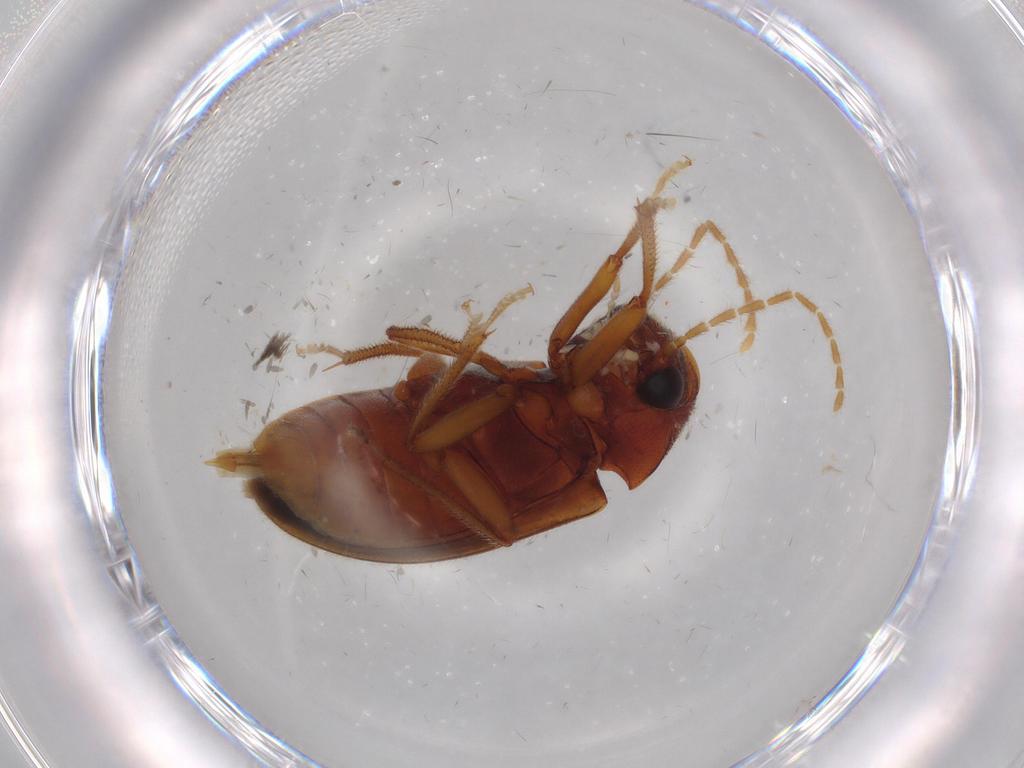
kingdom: Animalia
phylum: Arthropoda
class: Insecta
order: Coleoptera
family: Ptilodactylidae
